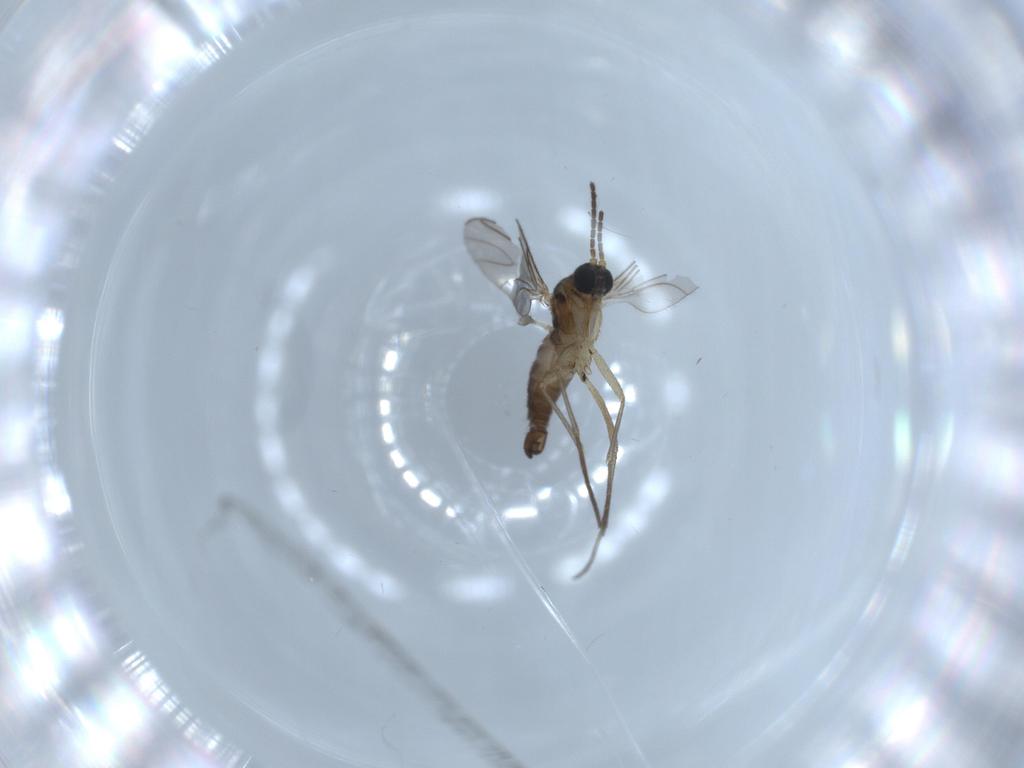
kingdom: Animalia
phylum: Arthropoda
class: Insecta
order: Diptera
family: Sciaridae
